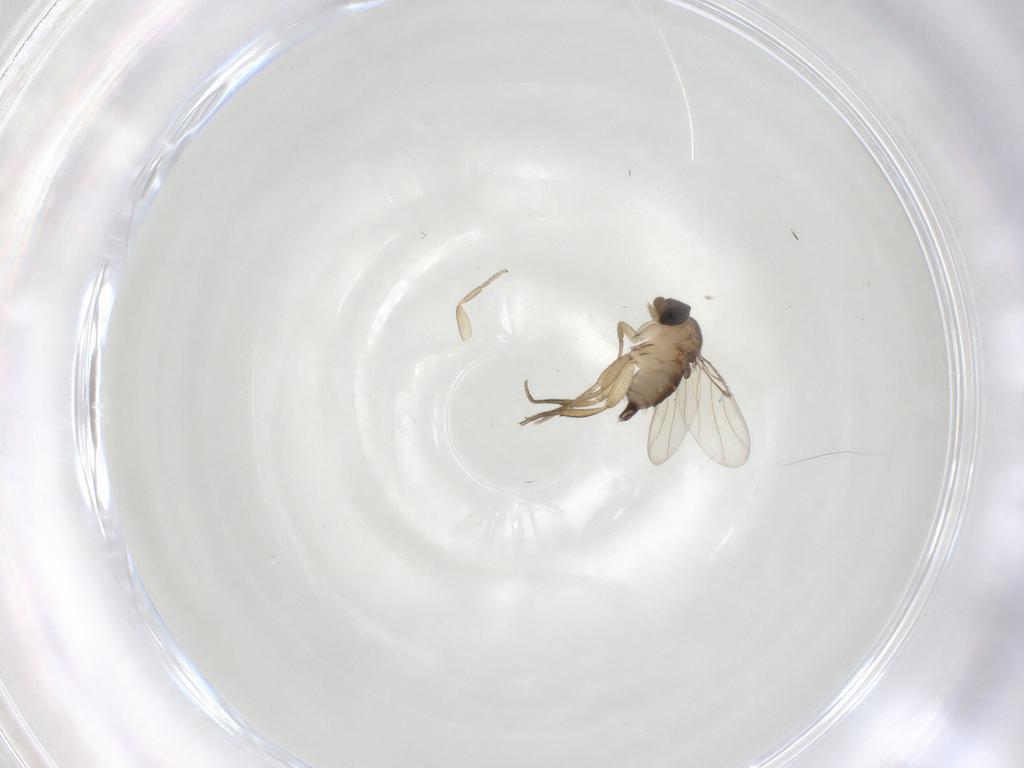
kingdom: Animalia
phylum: Arthropoda
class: Insecta
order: Diptera
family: Phoridae
